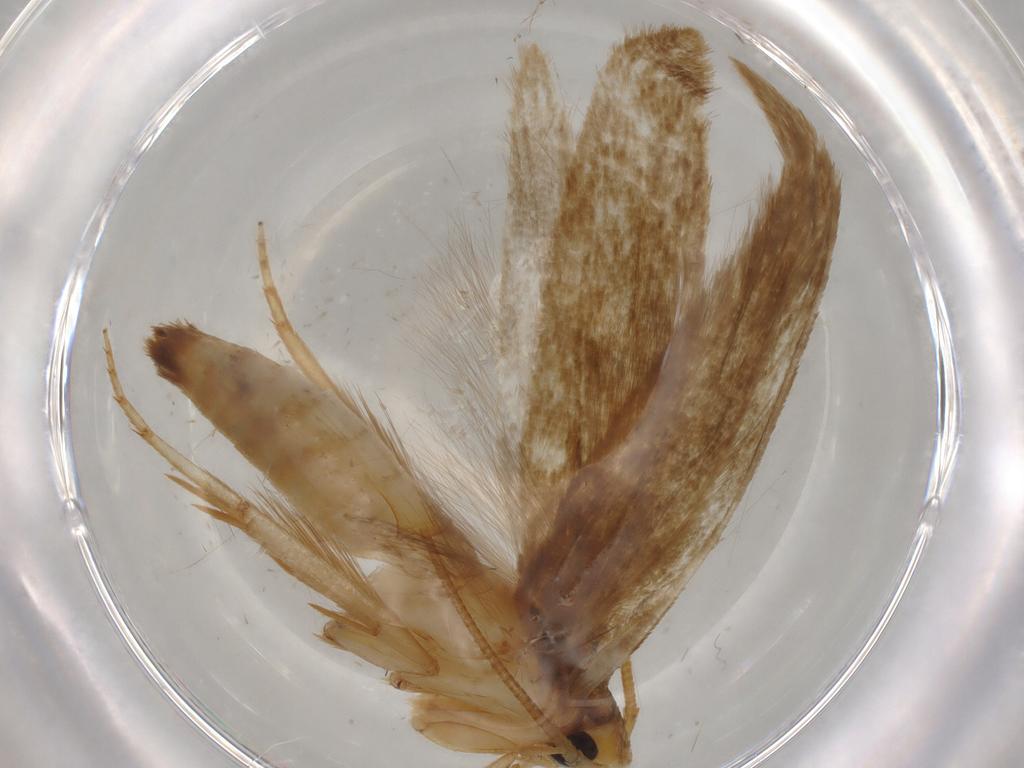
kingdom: Animalia
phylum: Arthropoda
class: Insecta
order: Lepidoptera
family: Tineidae
